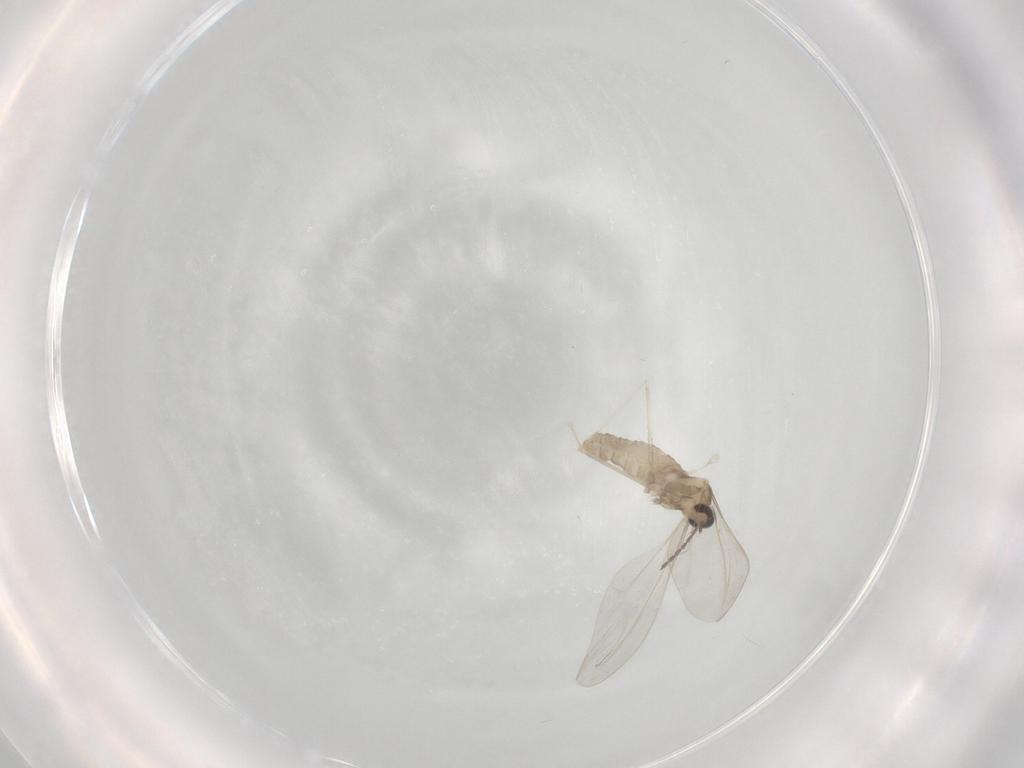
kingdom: Animalia
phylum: Arthropoda
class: Insecta
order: Diptera
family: Cecidomyiidae
